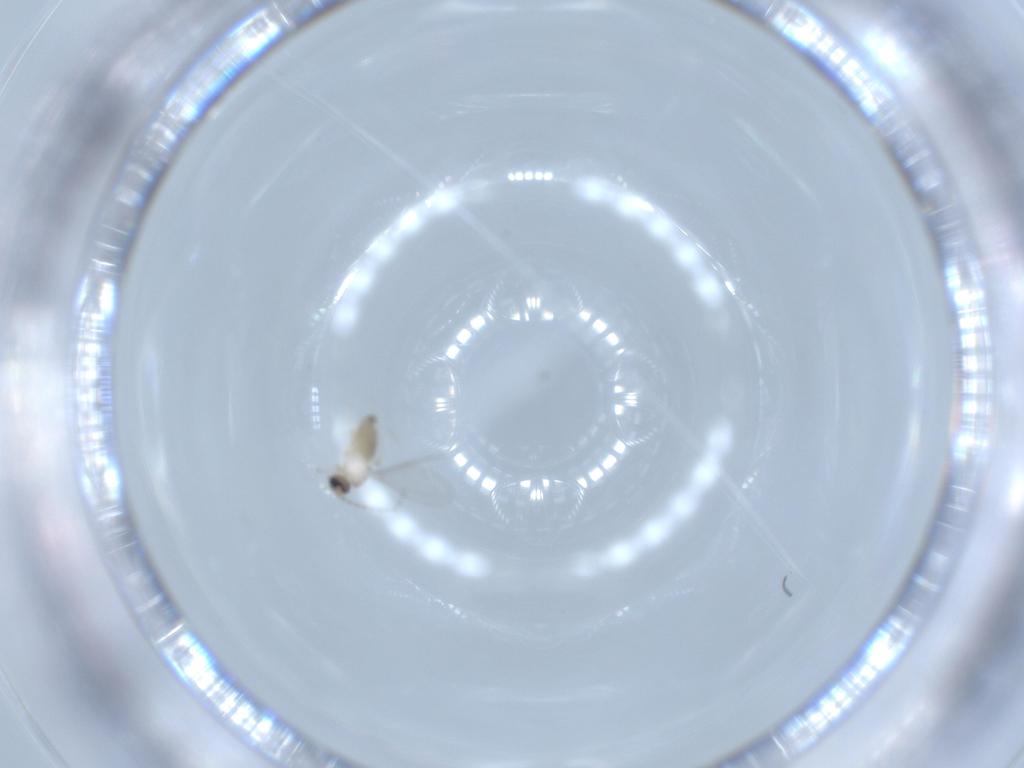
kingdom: Animalia
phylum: Arthropoda
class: Insecta
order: Diptera
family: Cecidomyiidae
